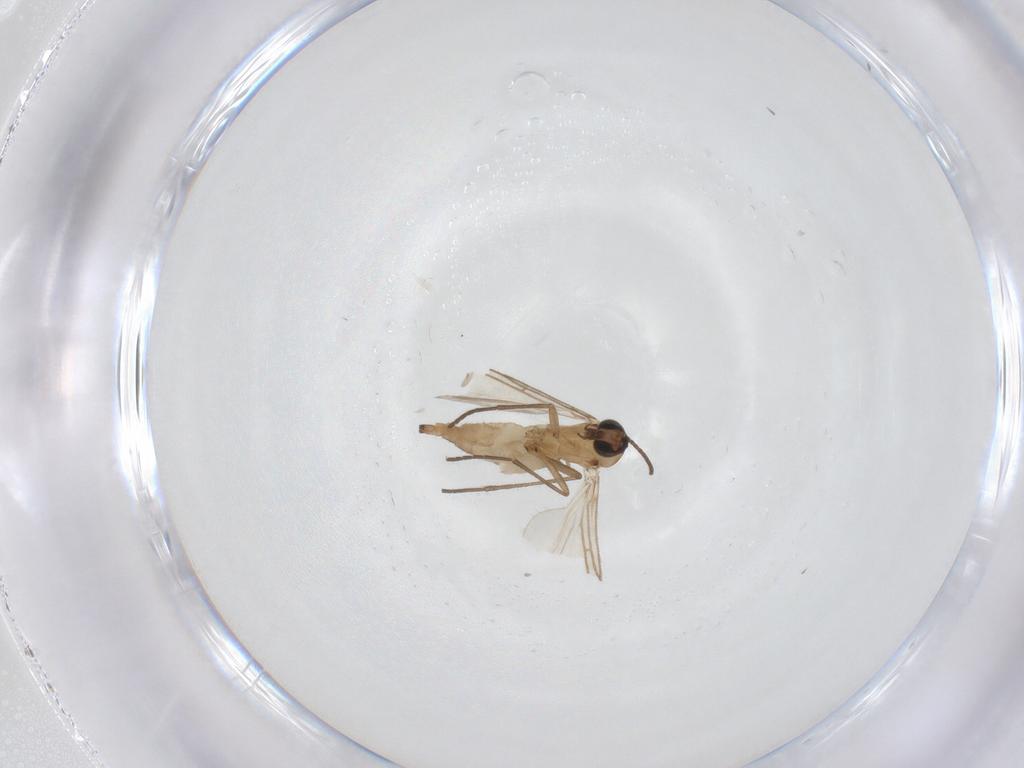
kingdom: Animalia
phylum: Arthropoda
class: Insecta
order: Diptera
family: Sciaridae
